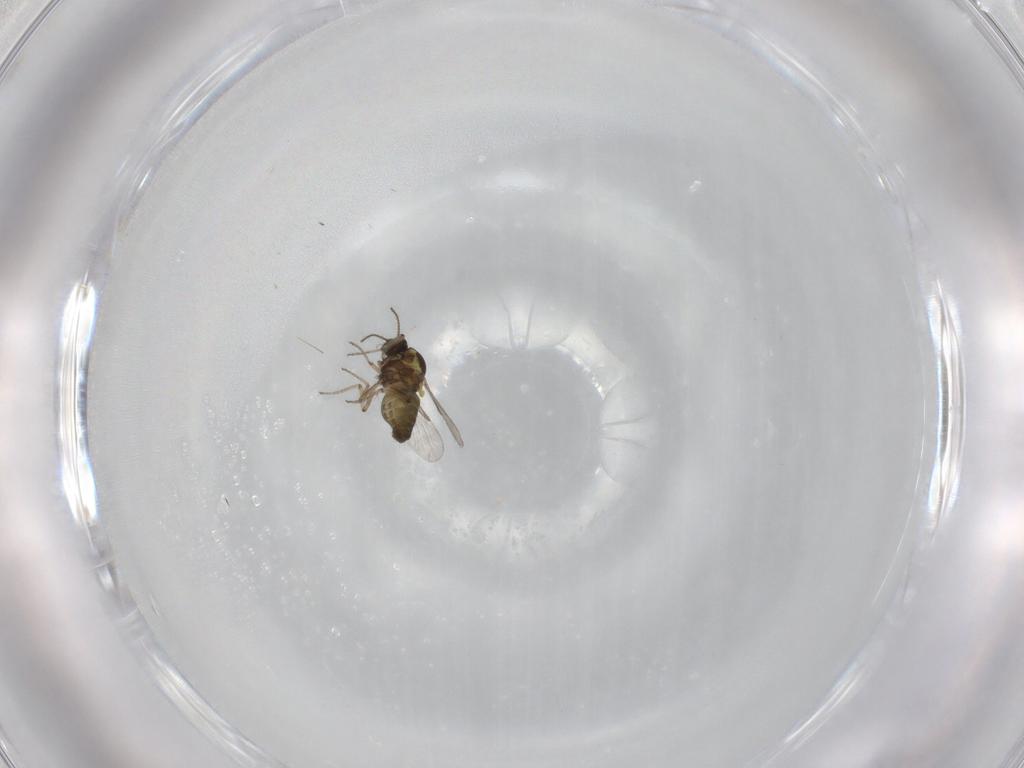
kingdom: Animalia
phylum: Arthropoda
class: Insecta
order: Diptera
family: Ceratopogonidae
